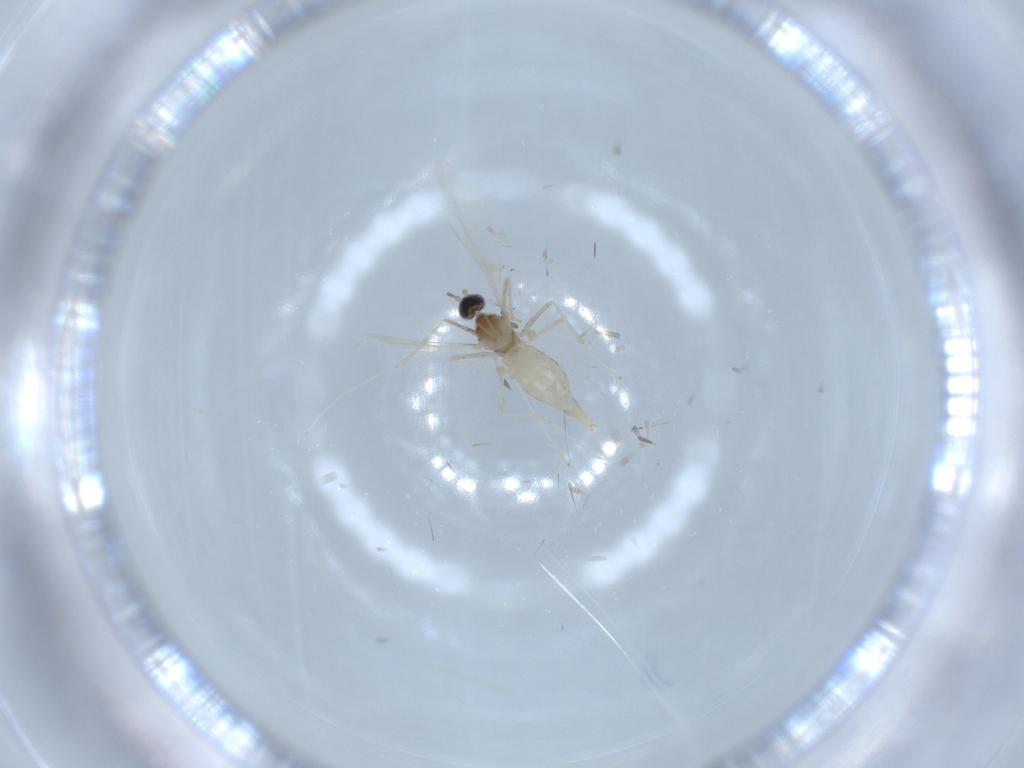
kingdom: Animalia
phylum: Arthropoda
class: Insecta
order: Diptera
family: Cecidomyiidae
